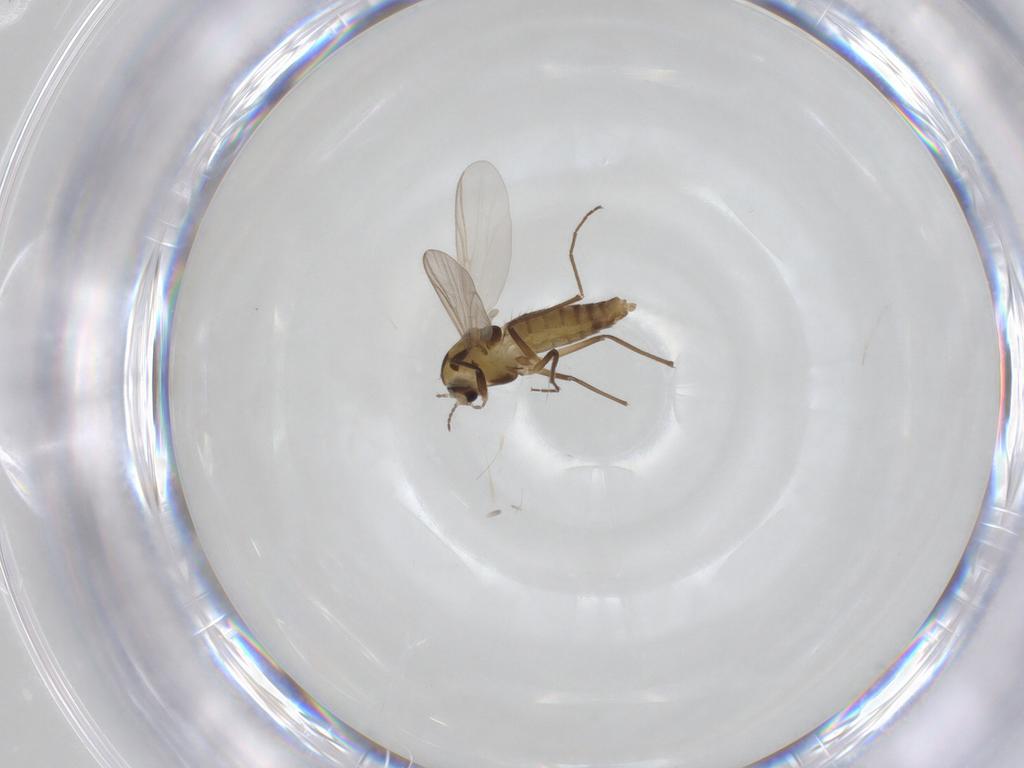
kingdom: Animalia
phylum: Arthropoda
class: Insecta
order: Diptera
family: Chironomidae
